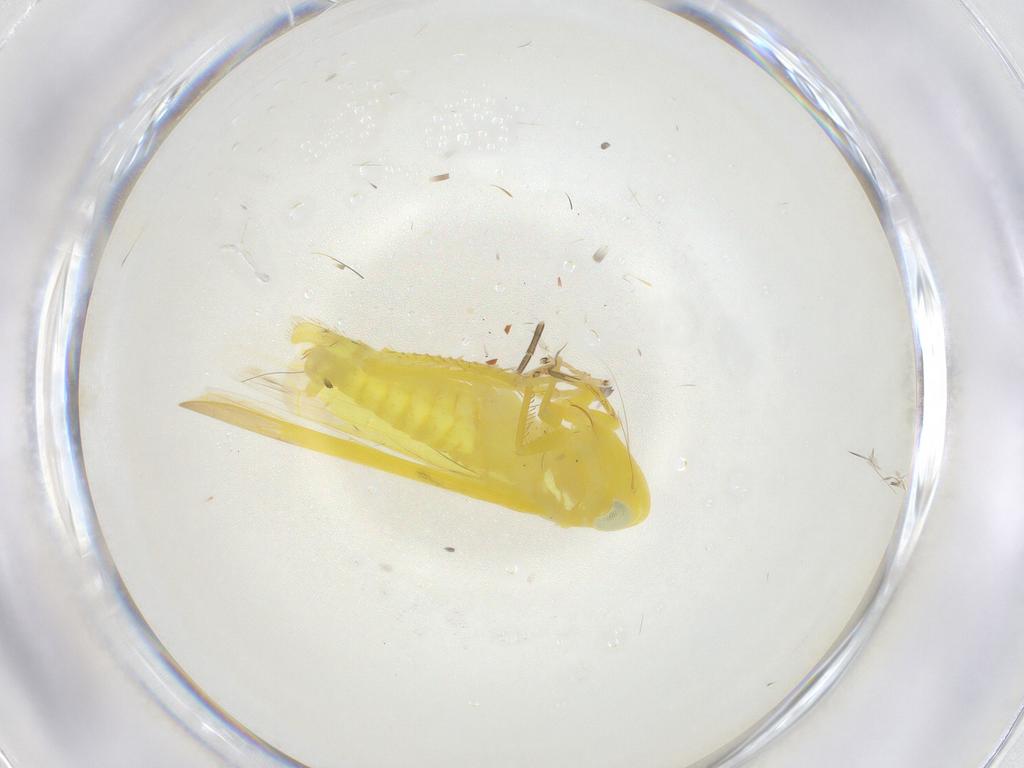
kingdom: Animalia
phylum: Arthropoda
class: Insecta
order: Hemiptera
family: Cicadellidae
